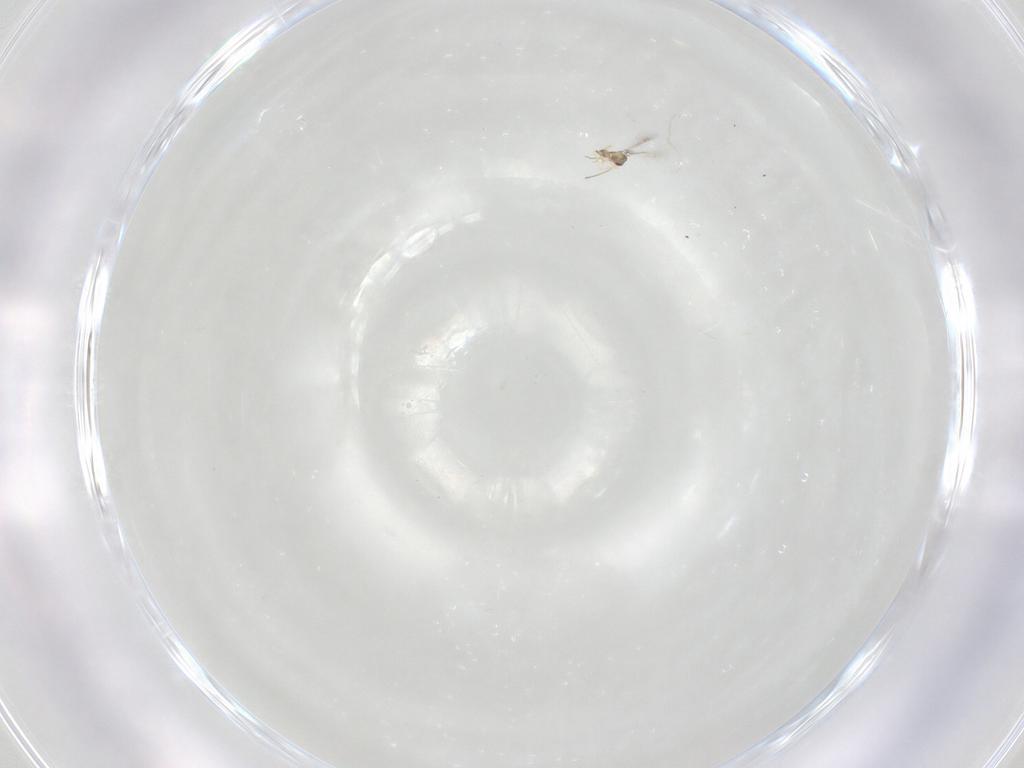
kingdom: Animalia
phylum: Arthropoda
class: Insecta
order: Hymenoptera
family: Mymaridae
